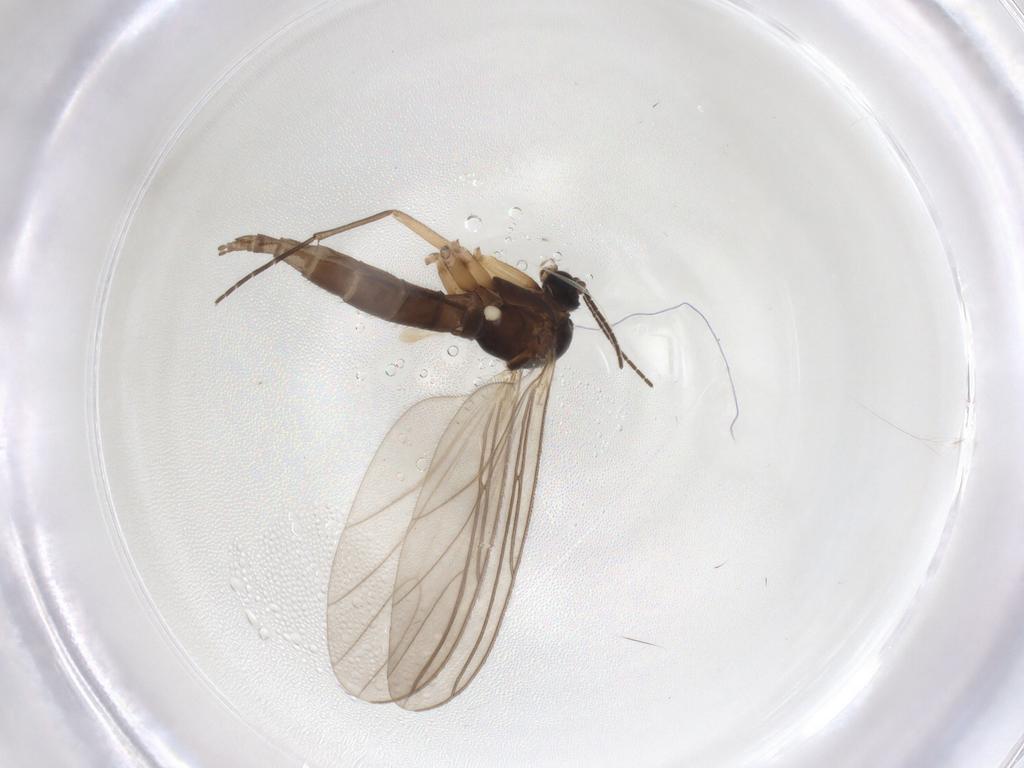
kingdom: Animalia
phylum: Arthropoda
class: Insecta
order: Diptera
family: Sciaridae
